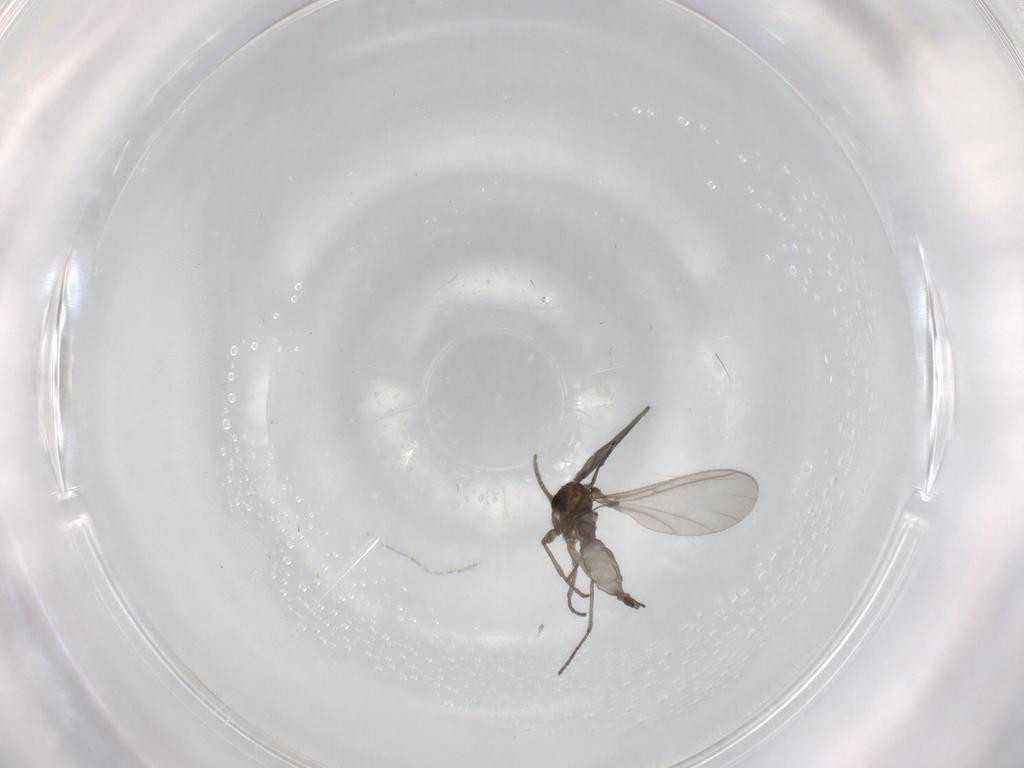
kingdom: Animalia
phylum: Arthropoda
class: Insecta
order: Diptera
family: Sciaridae
